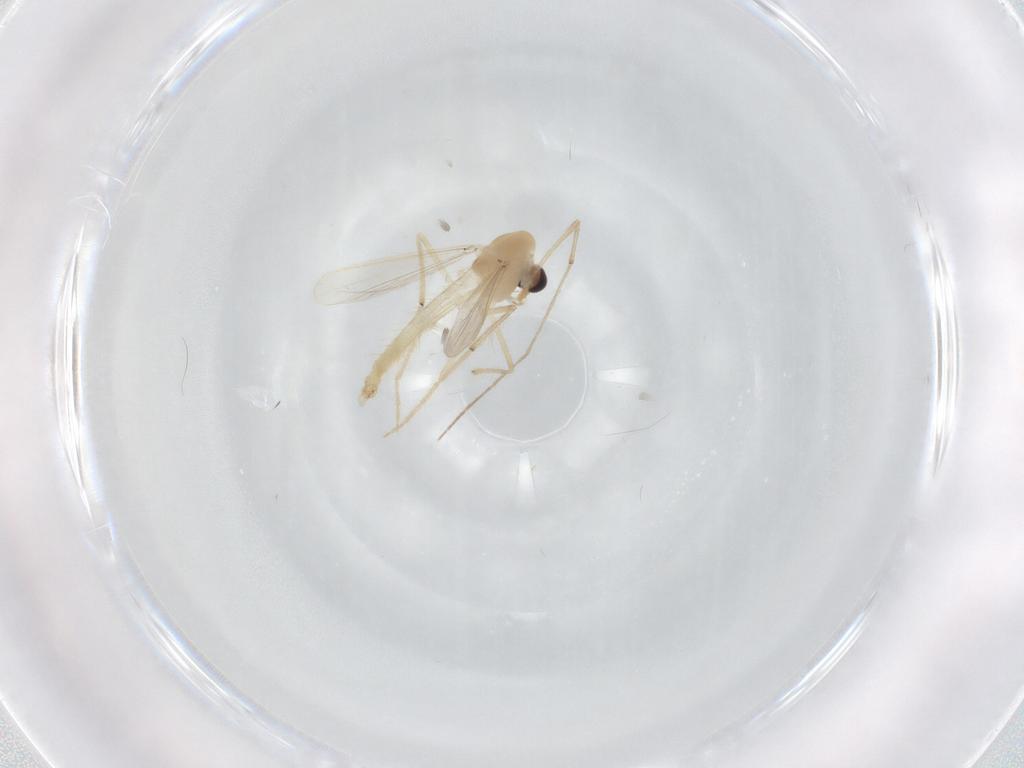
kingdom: Animalia
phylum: Arthropoda
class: Insecta
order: Diptera
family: Chironomidae
